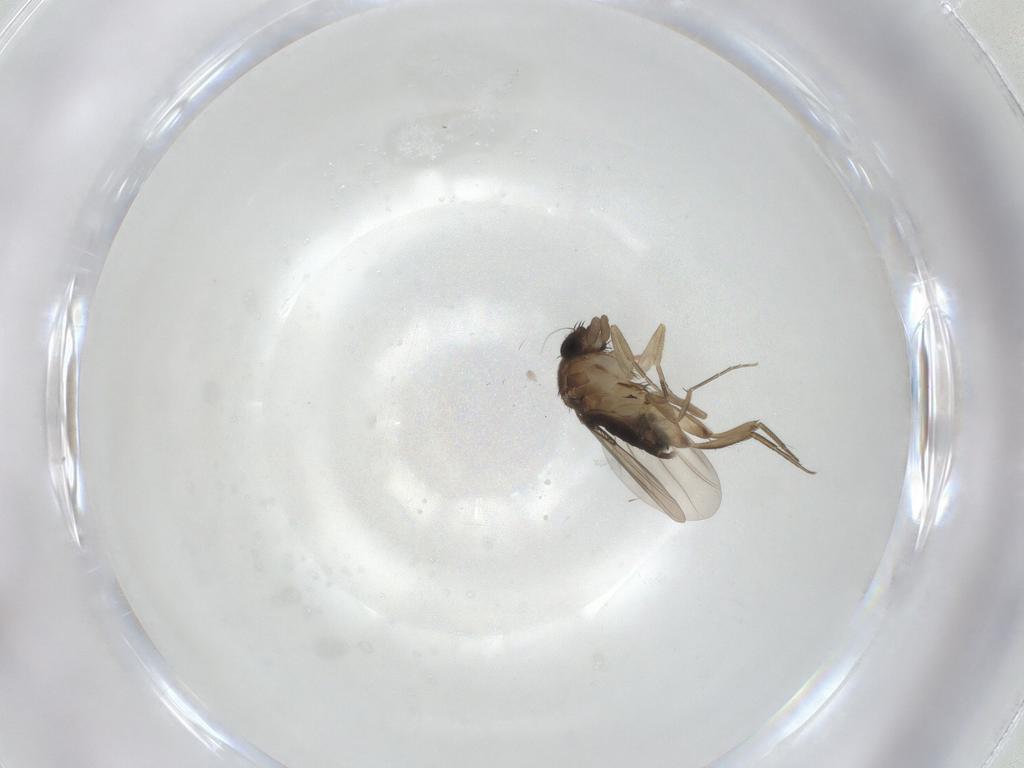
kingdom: Animalia
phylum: Arthropoda
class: Insecta
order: Diptera
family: Phoridae
